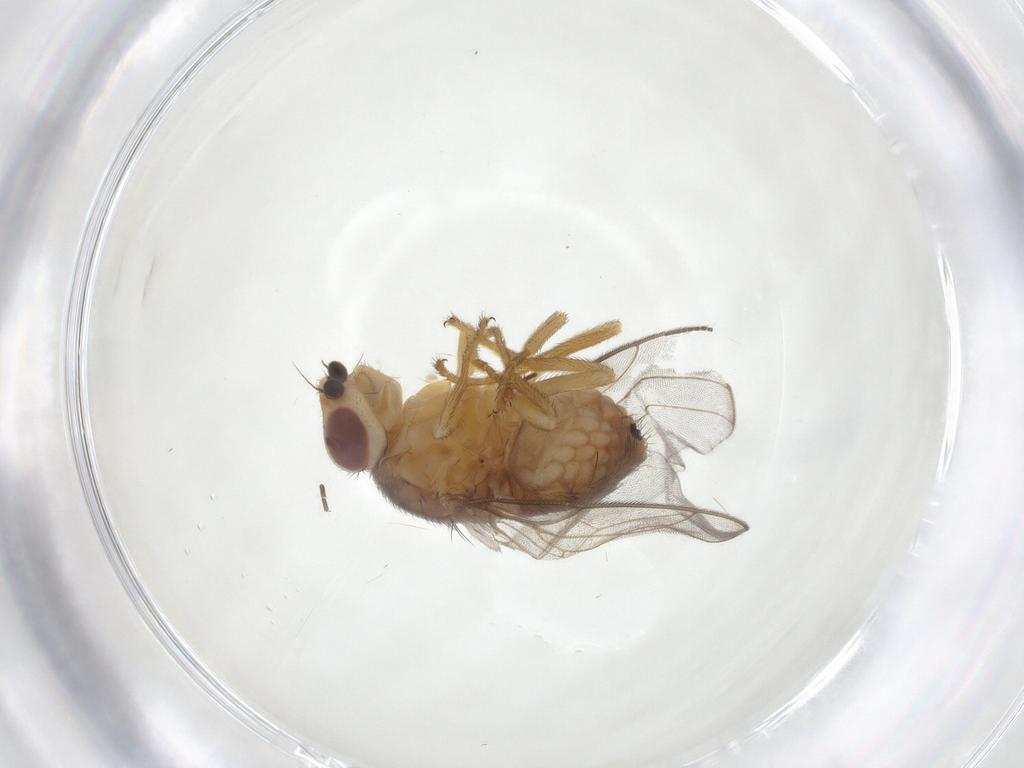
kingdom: Animalia
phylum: Arthropoda
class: Insecta
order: Diptera
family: Chloropidae
